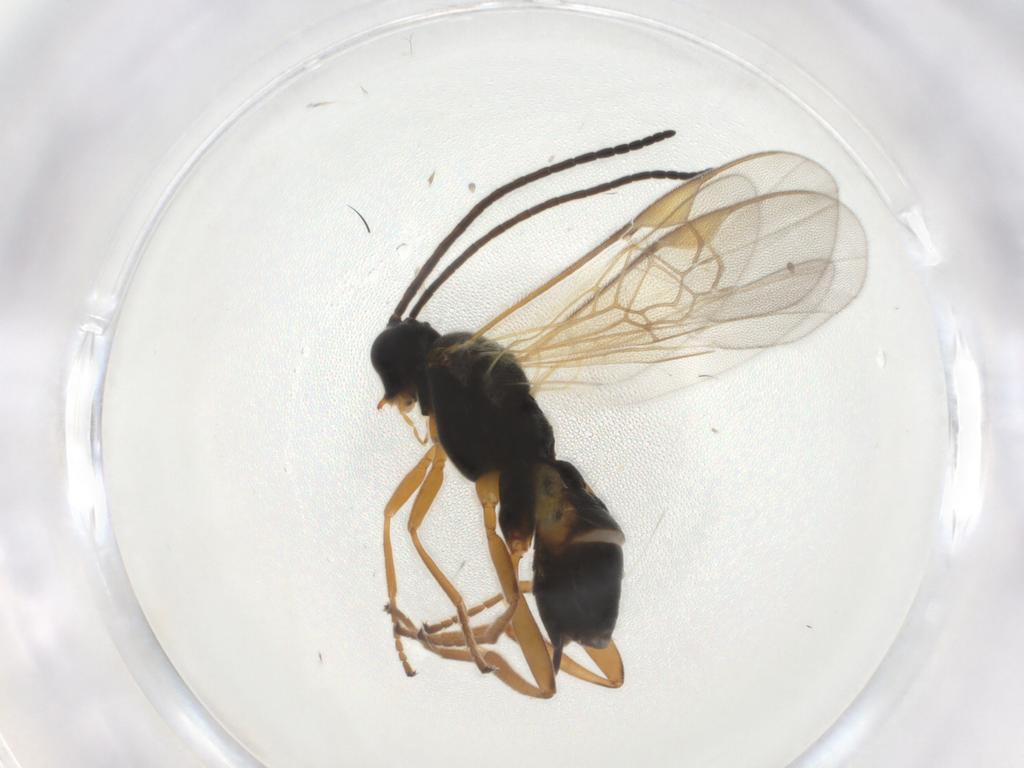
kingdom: Animalia
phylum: Arthropoda
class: Insecta
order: Hymenoptera
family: Braconidae
